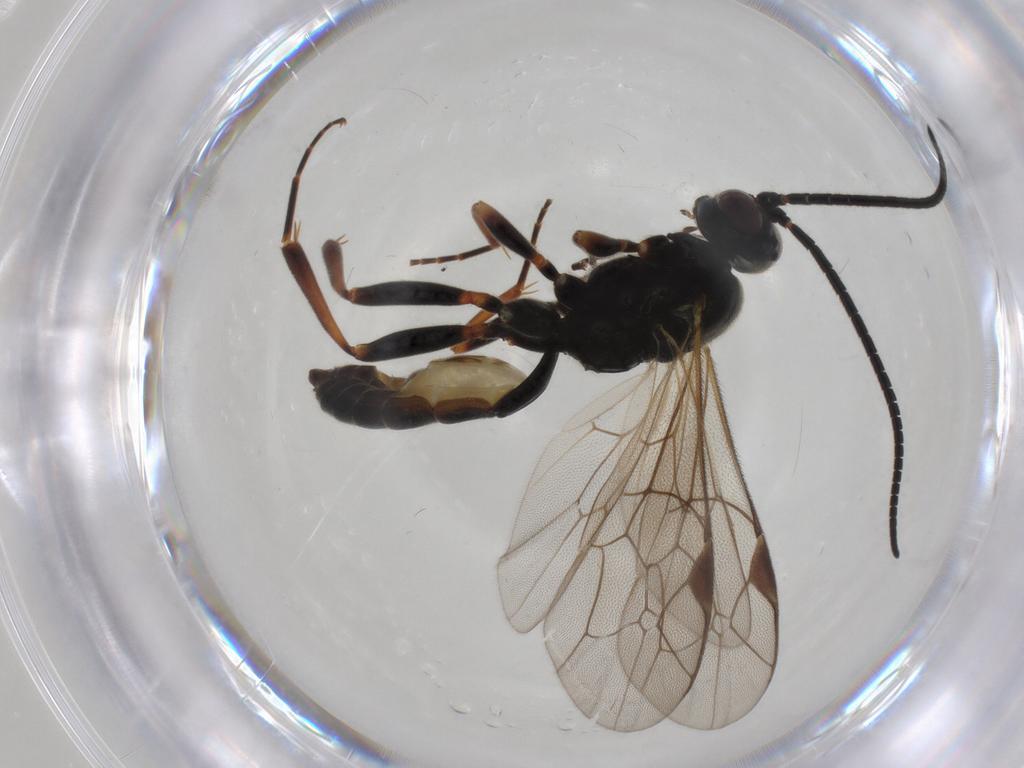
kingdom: Animalia
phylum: Arthropoda
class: Insecta
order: Hymenoptera
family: Ichneumonidae
